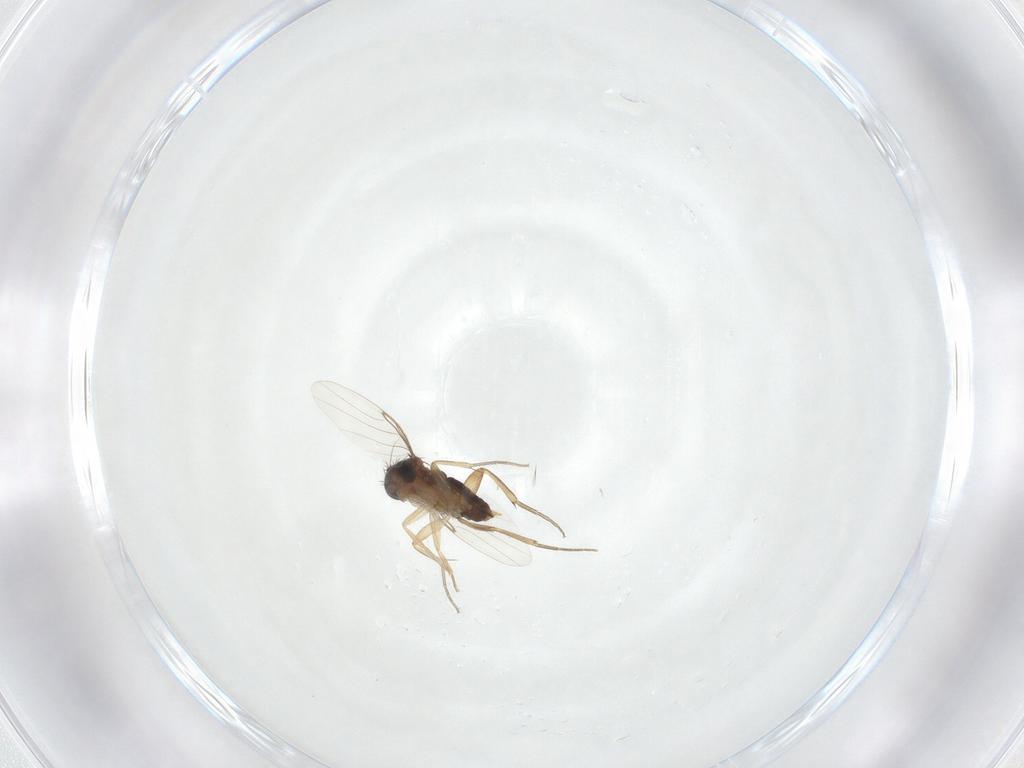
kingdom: Animalia
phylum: Arthropoda
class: Insecta
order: Diptera
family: Phoridae
